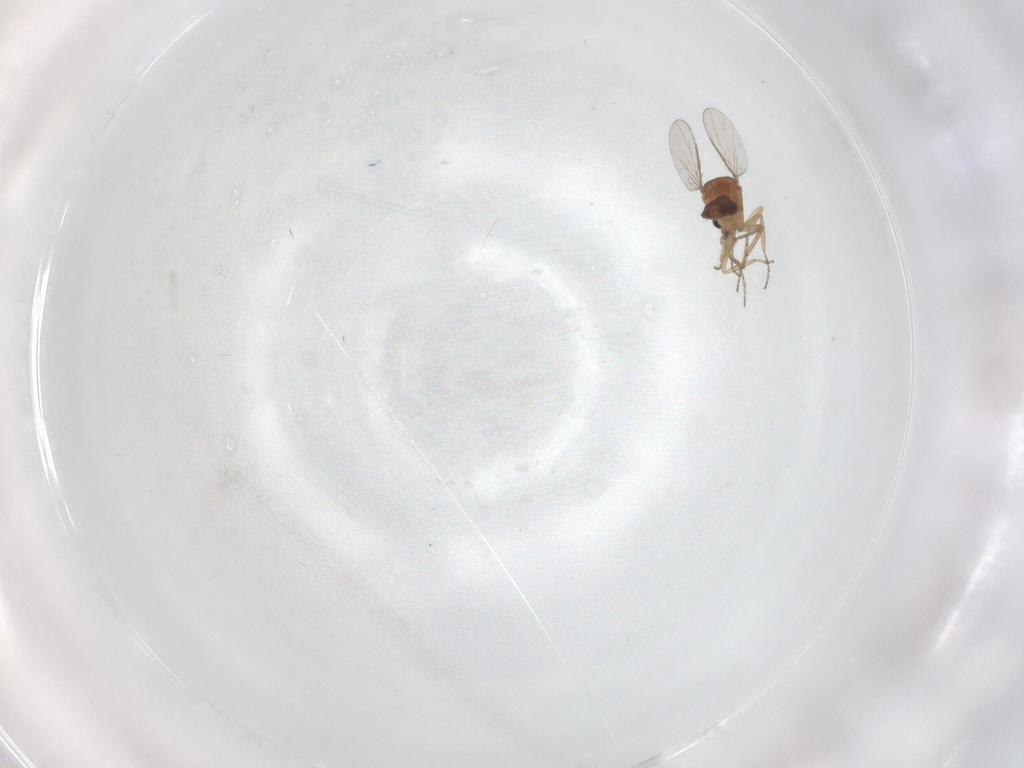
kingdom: Animalia
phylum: Arthropoda
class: Insecta
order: Diptera
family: Ceratopogonidae
